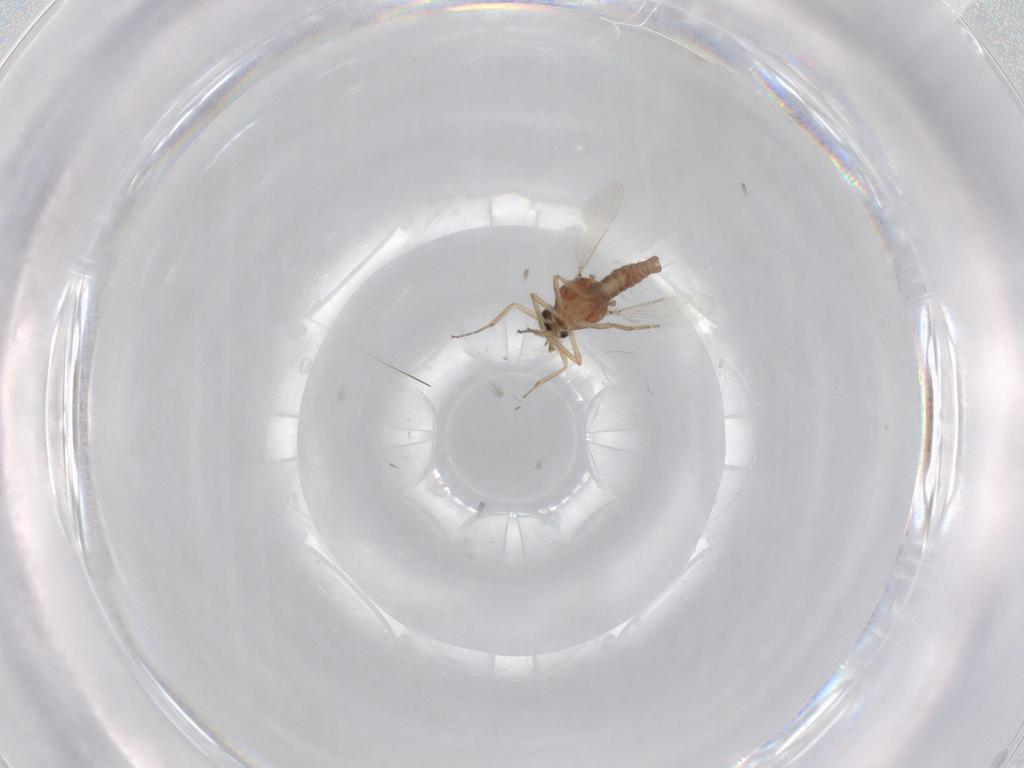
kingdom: Animalia
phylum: Arthropoda
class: Insecta
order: Diptera
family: Ceratopogonidae
